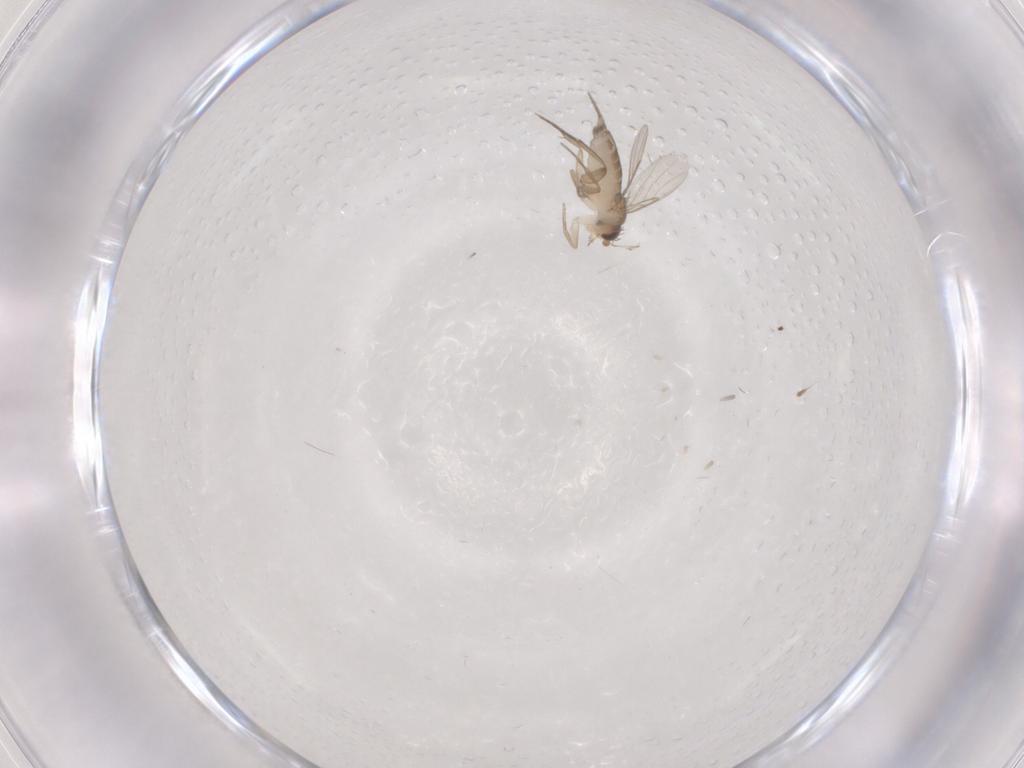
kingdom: Animalia
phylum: Arthropoda
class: Insecta
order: Diptera
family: Phoridae
